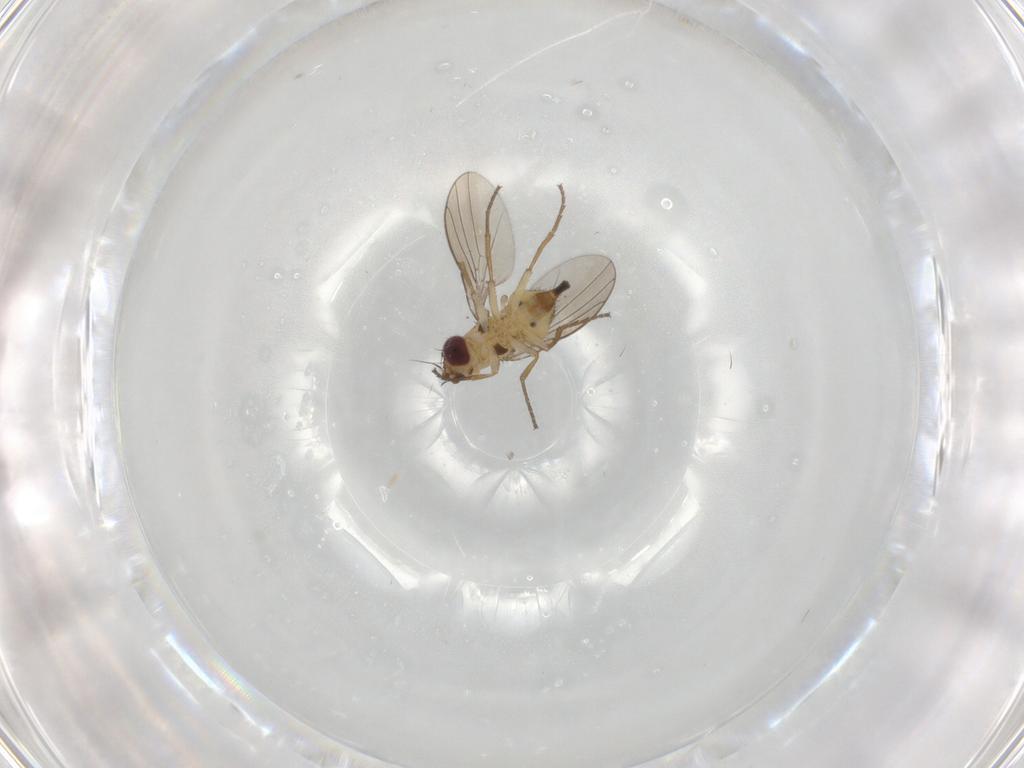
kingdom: Animalia
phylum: Arthropoda
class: Insecta
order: Diptera
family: Agromyzidae
